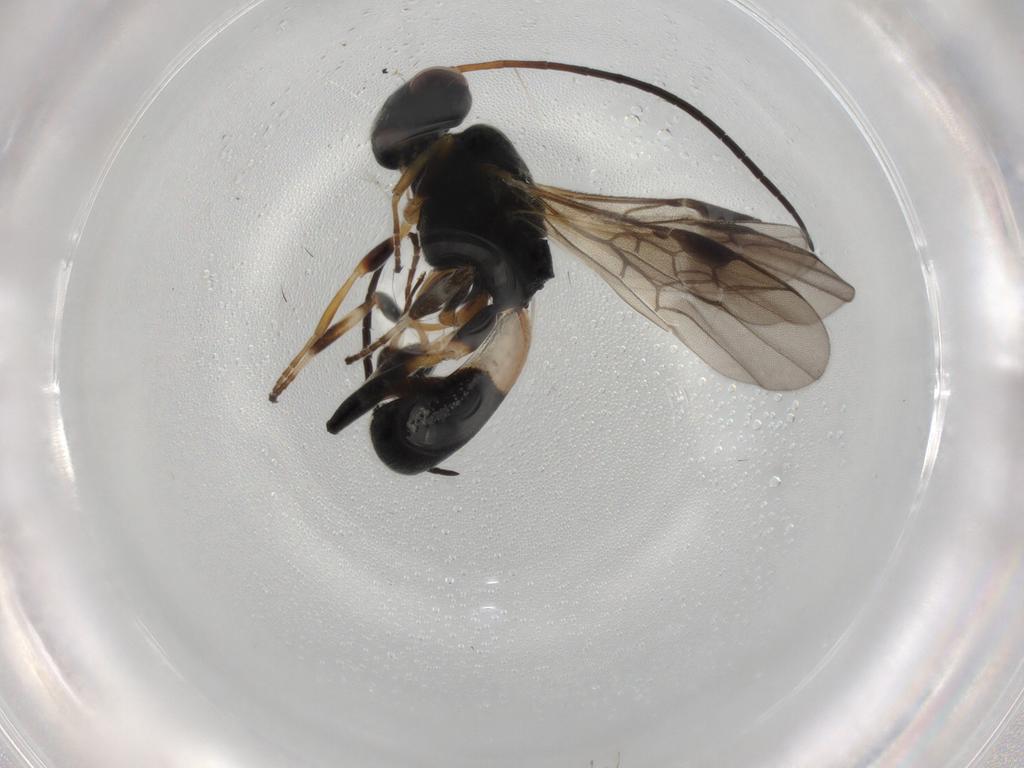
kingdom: Animalia
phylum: Arthropoda
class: Insecta
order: Hymenoptera
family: Braconidae
